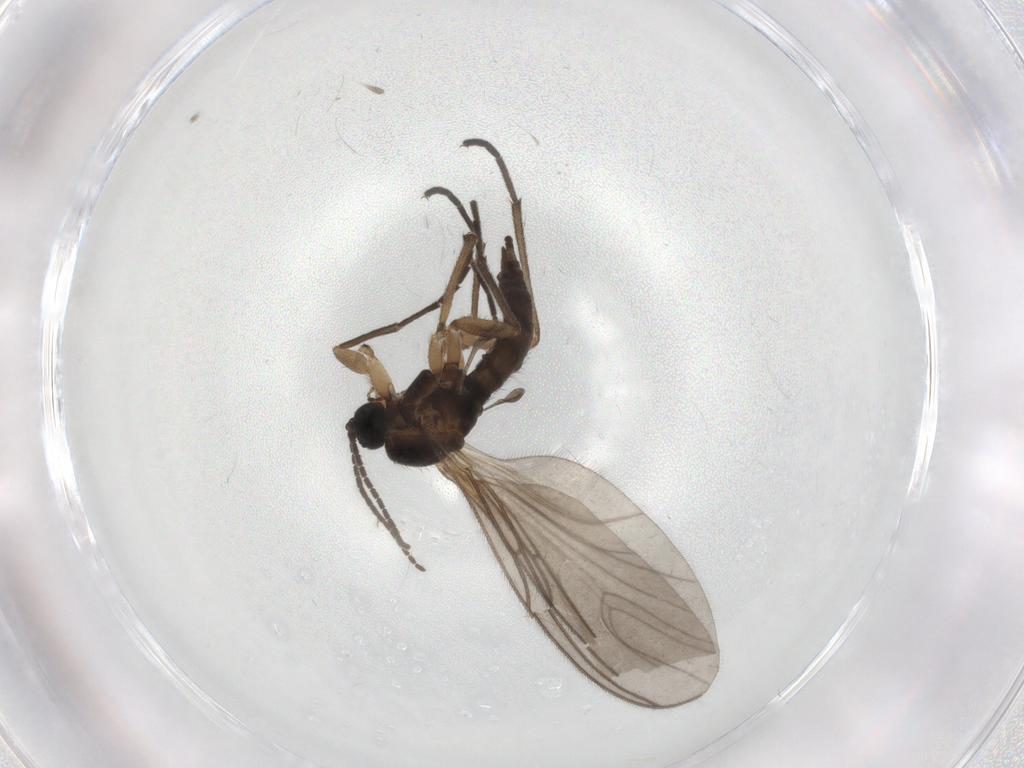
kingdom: Animalia
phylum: Arthropoda
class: Insecta
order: Diptera
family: Sciaridae
